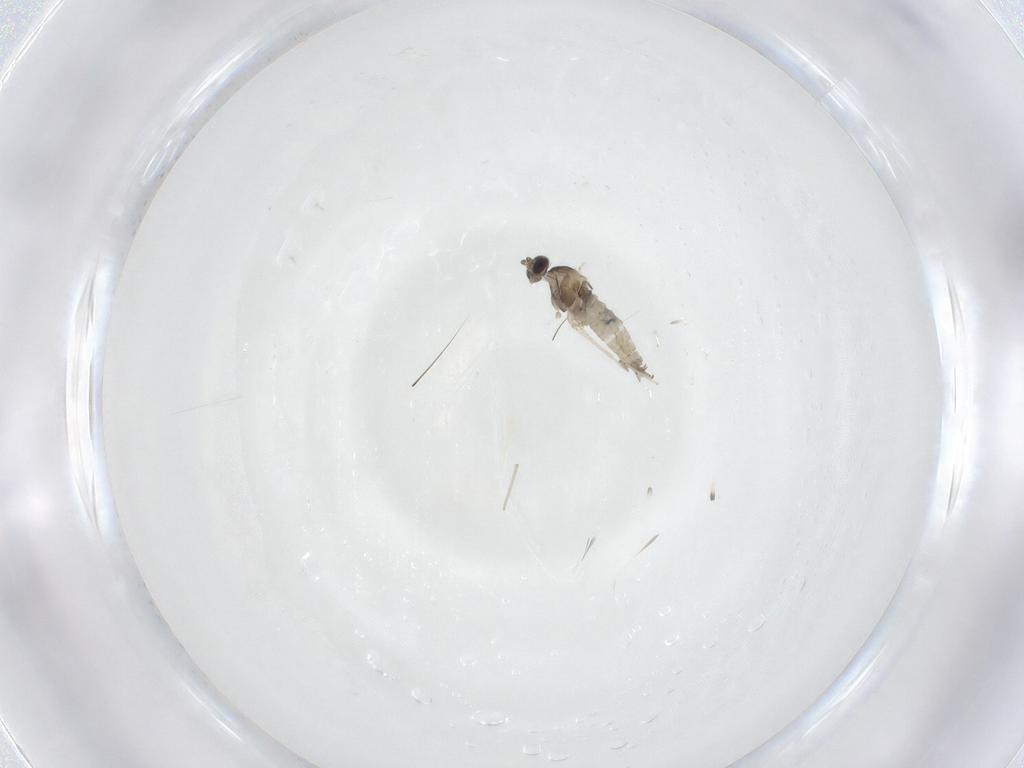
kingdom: Animalia
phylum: Arthropoda
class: Insecta
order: Diptera
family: Cecidomyiidae
